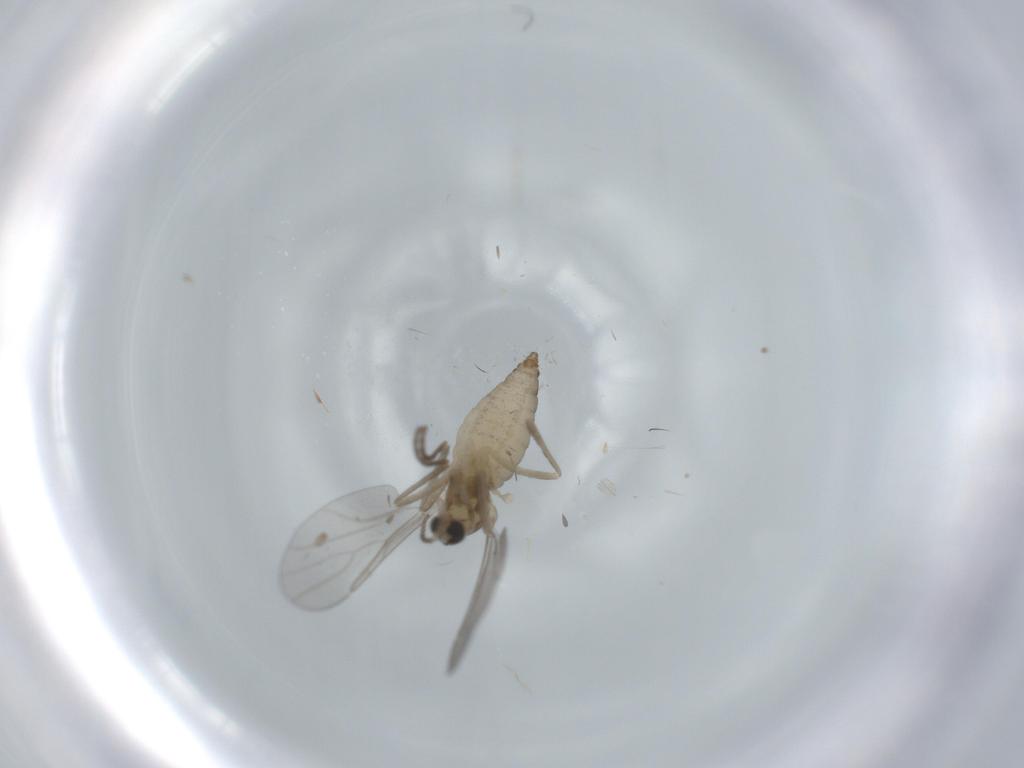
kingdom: Animalia
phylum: Arthropoda
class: Insecta
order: Diptera
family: Cecidomyiidae
